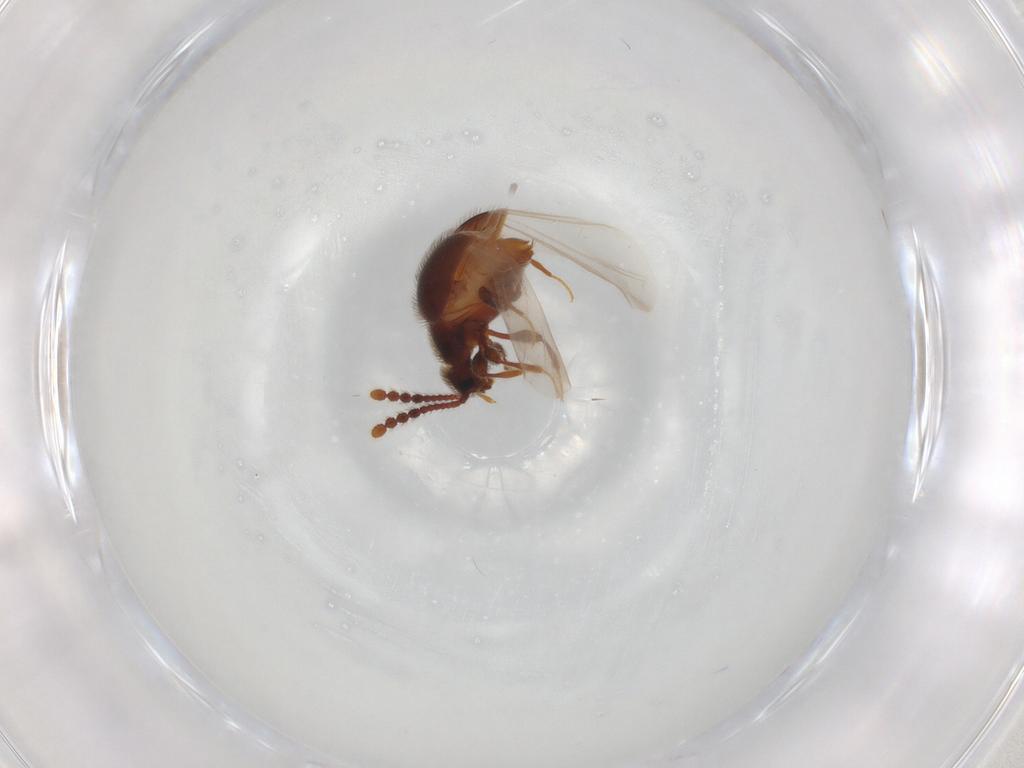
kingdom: Animalia
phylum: Arthropoda
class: Insecta
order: Coleoptera
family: Staphylinidae
